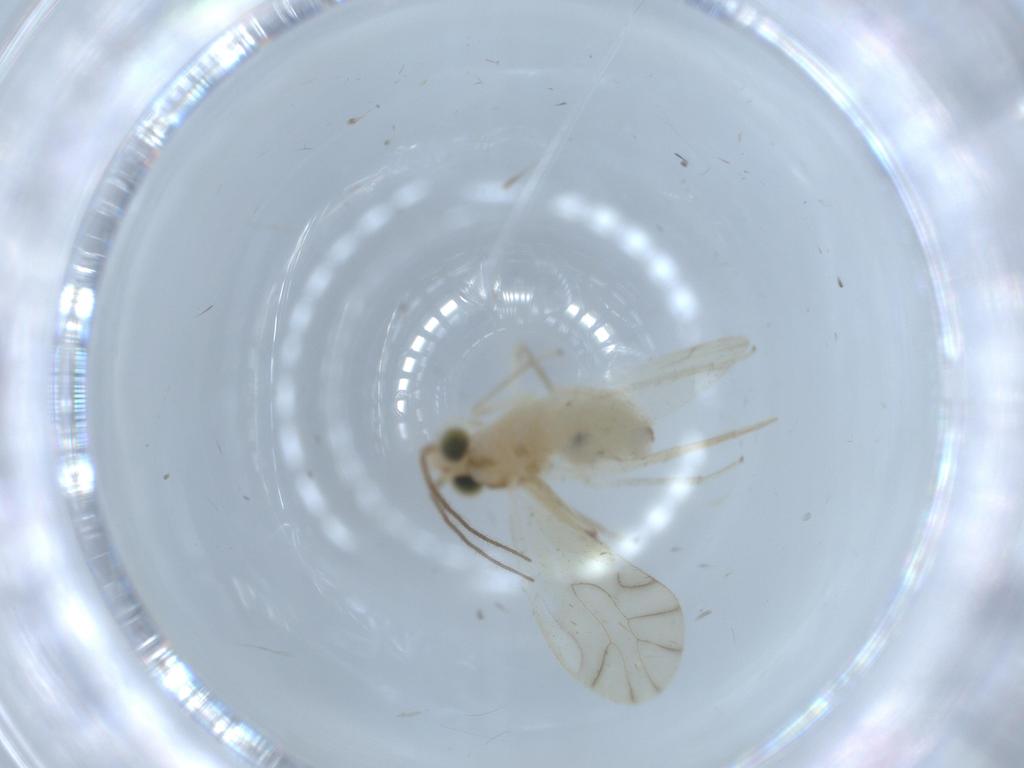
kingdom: Animalia
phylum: Arthropoda
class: Insecta
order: Psocodea
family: Caeciliusidae
